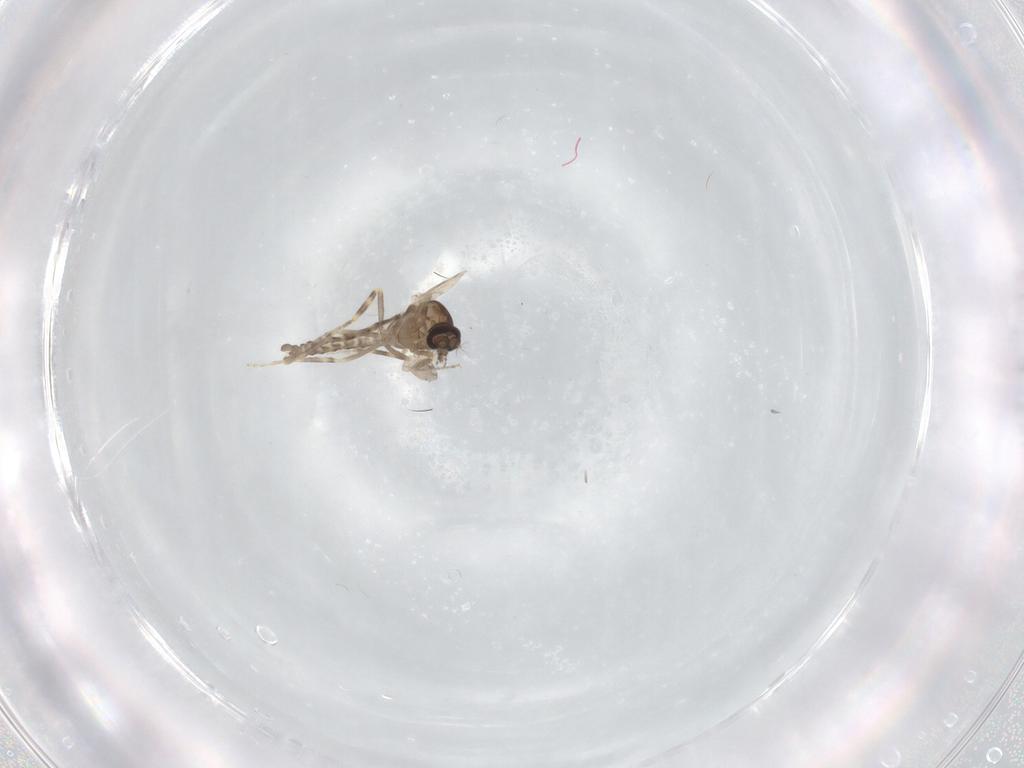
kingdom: Animalia
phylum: Arthropoda
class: Insecta
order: Diptera
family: Ceratopogonidae
